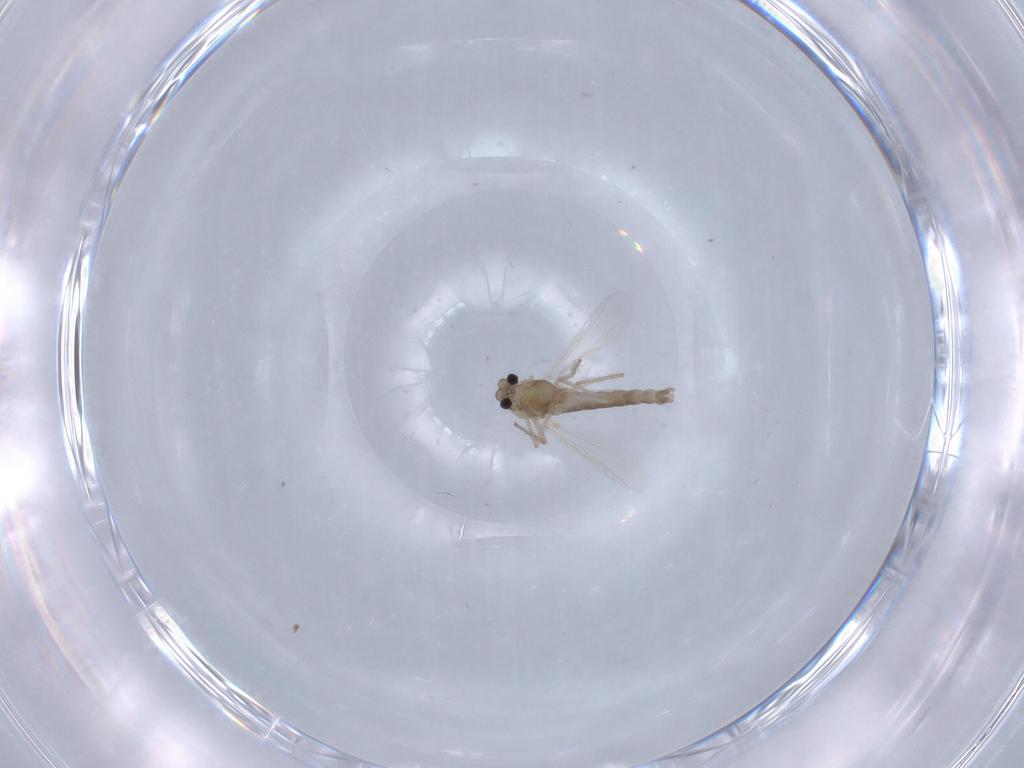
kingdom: Animalia
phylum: Arthropoda
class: Insecta
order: Diptera
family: Chironomidae
